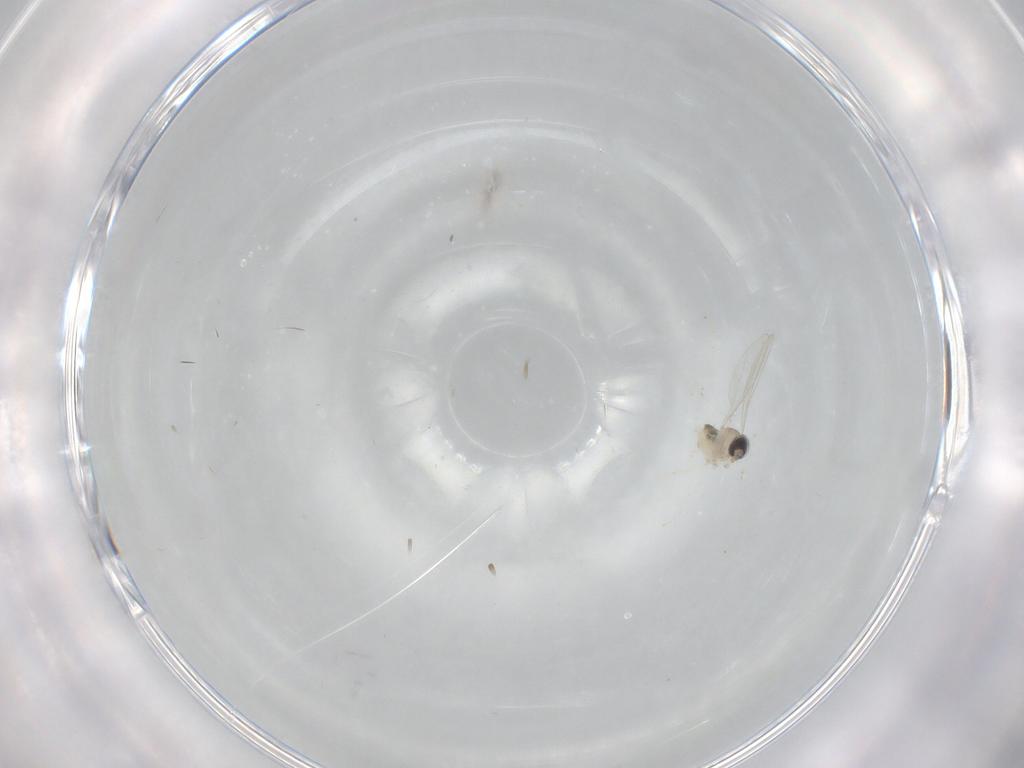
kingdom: Animalia
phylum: Arthropoda
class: Insecta
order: Diptera
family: Sciaridae
